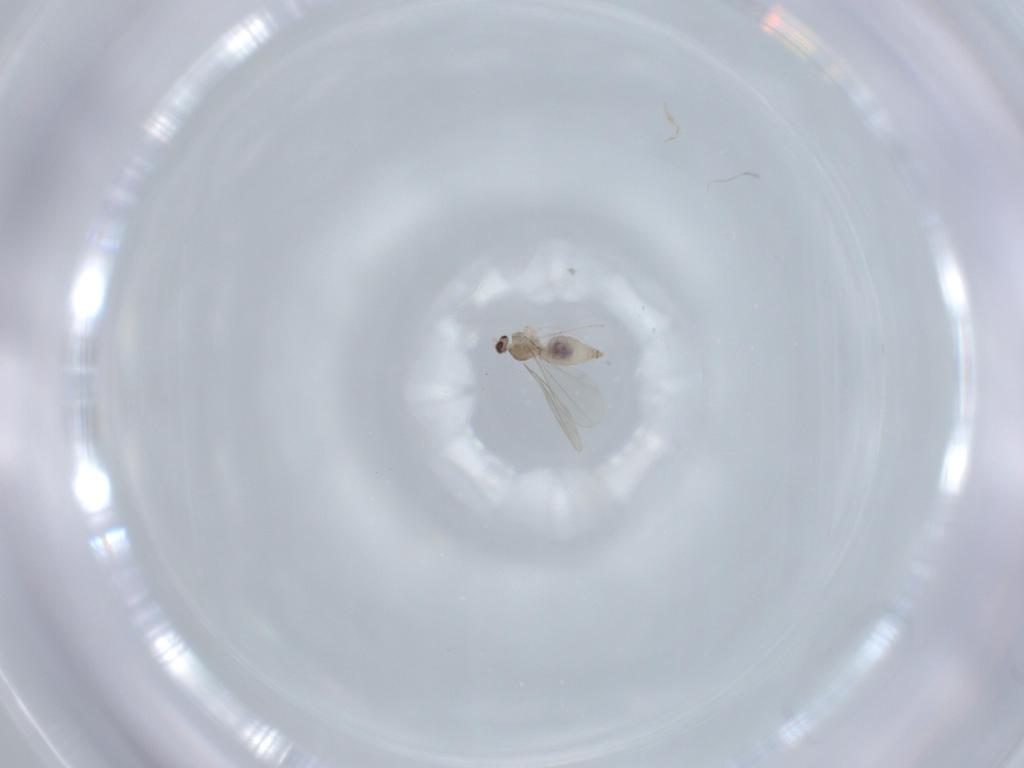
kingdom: Animalia
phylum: Arthropoda
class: Insecta
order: Diptera
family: Cecidomyiidae
